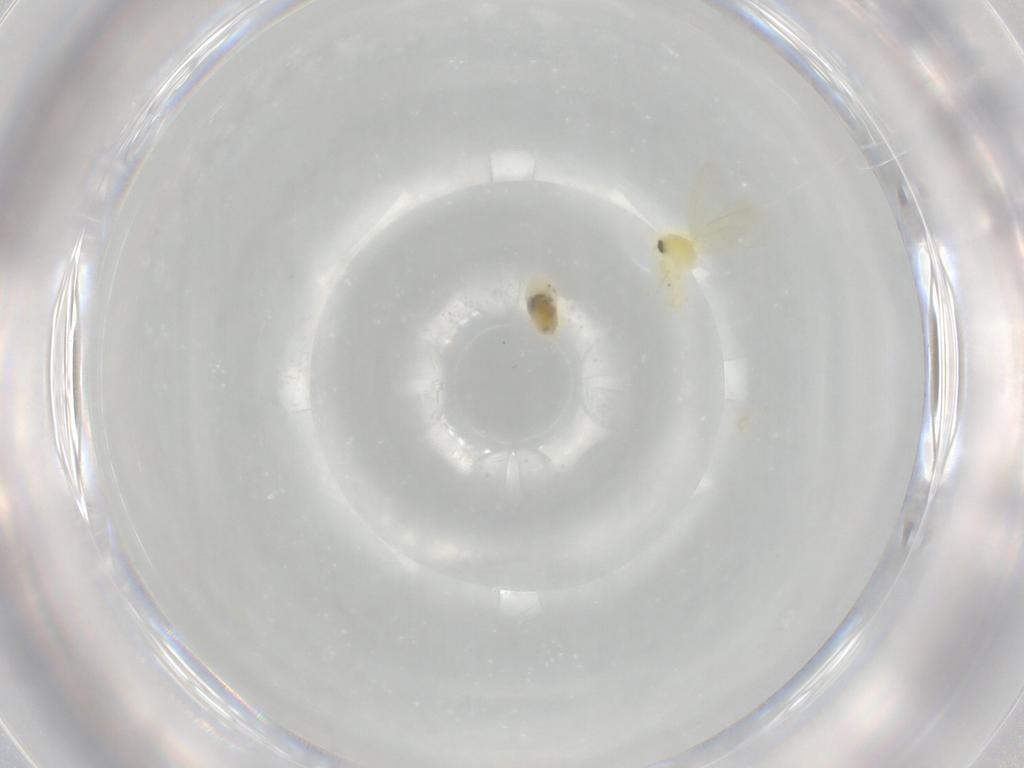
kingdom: Animalia
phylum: Arthropoda
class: Insecta
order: Hemiptera
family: Aleyrodidae
